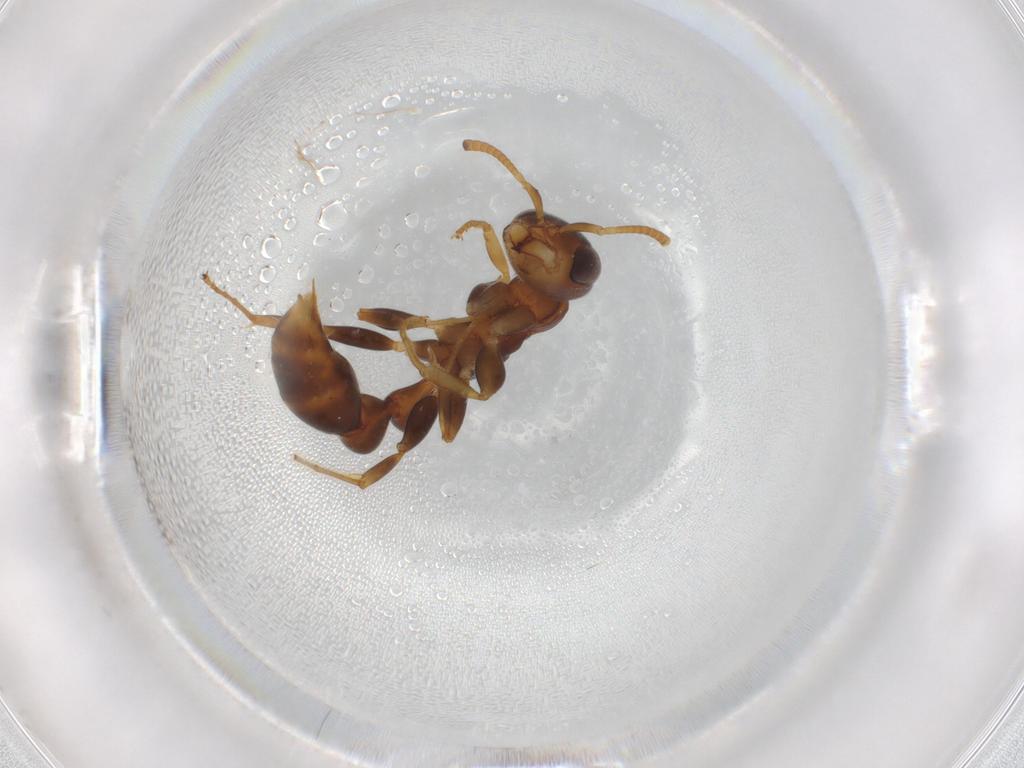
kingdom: Animalia
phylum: Arthropoda
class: Insecta
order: Hymenoptera
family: Formicidae
